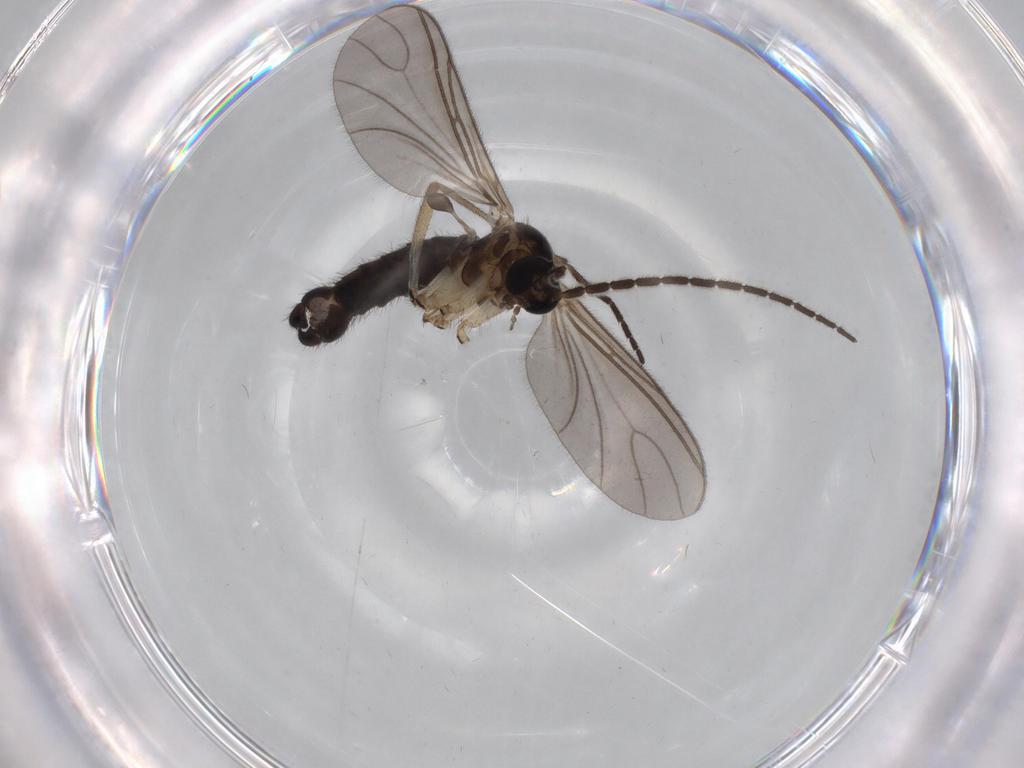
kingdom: Animalia
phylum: Arthropoda
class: Insecta
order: Diptera
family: Sciaridae
